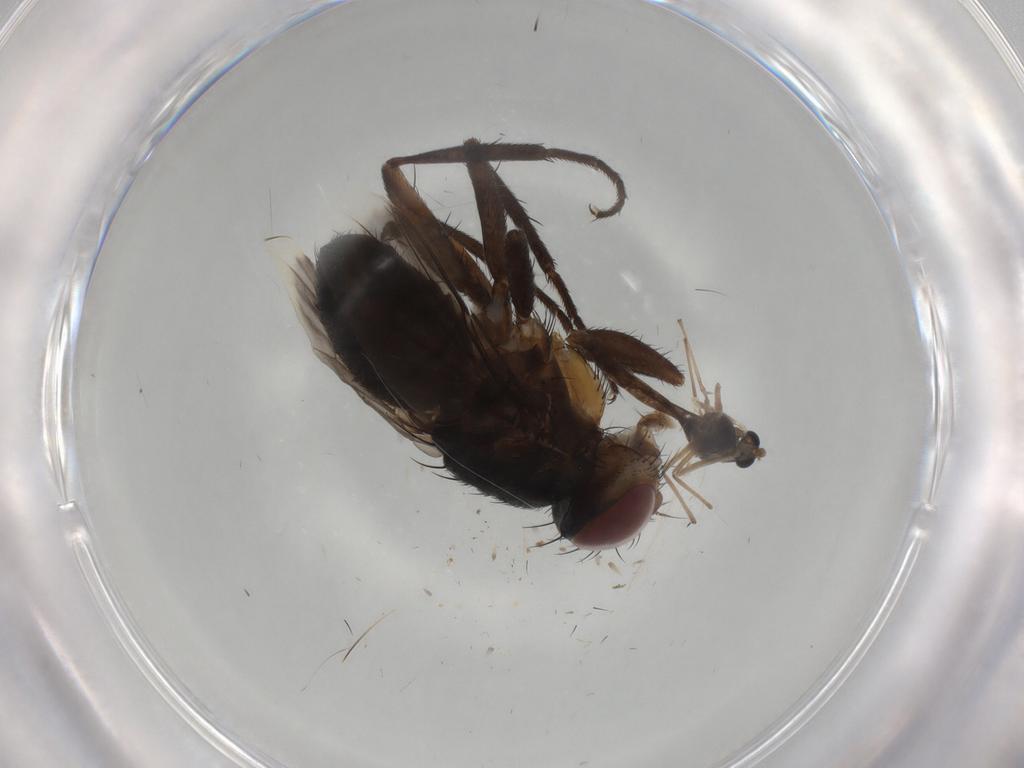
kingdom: Animalia
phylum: Arthropoda
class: Insecta
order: Diptera
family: Tachinidae
